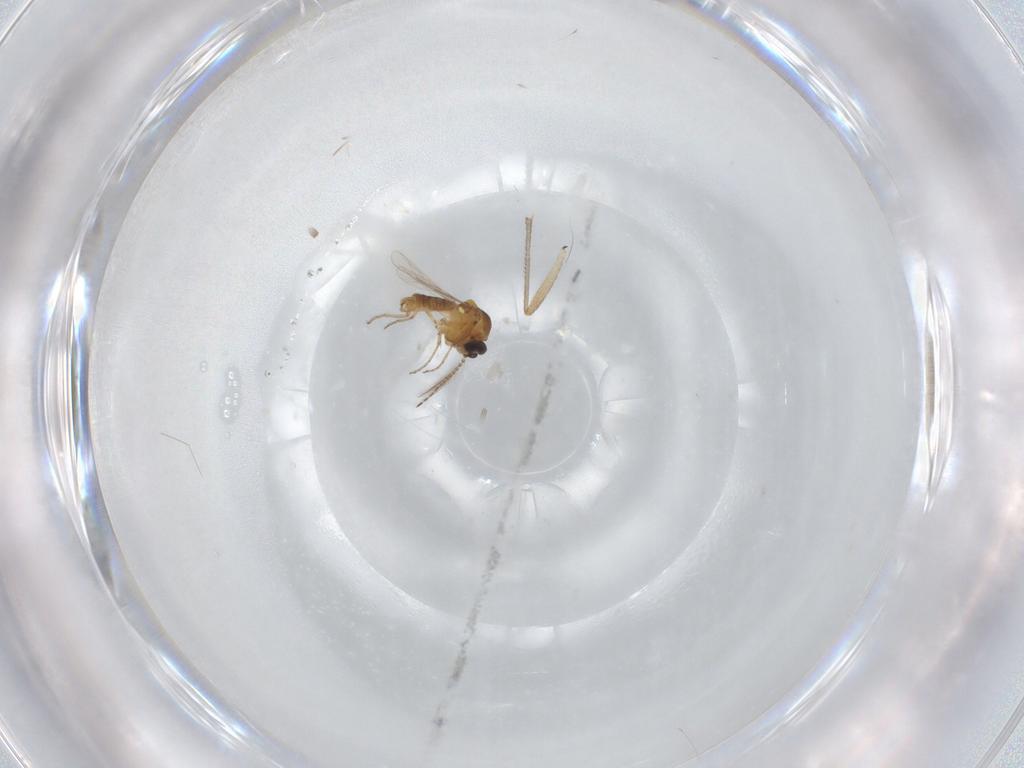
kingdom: Animalia
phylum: Arthropoda
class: Insecta
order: Diptera
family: Ceratopogonidae
